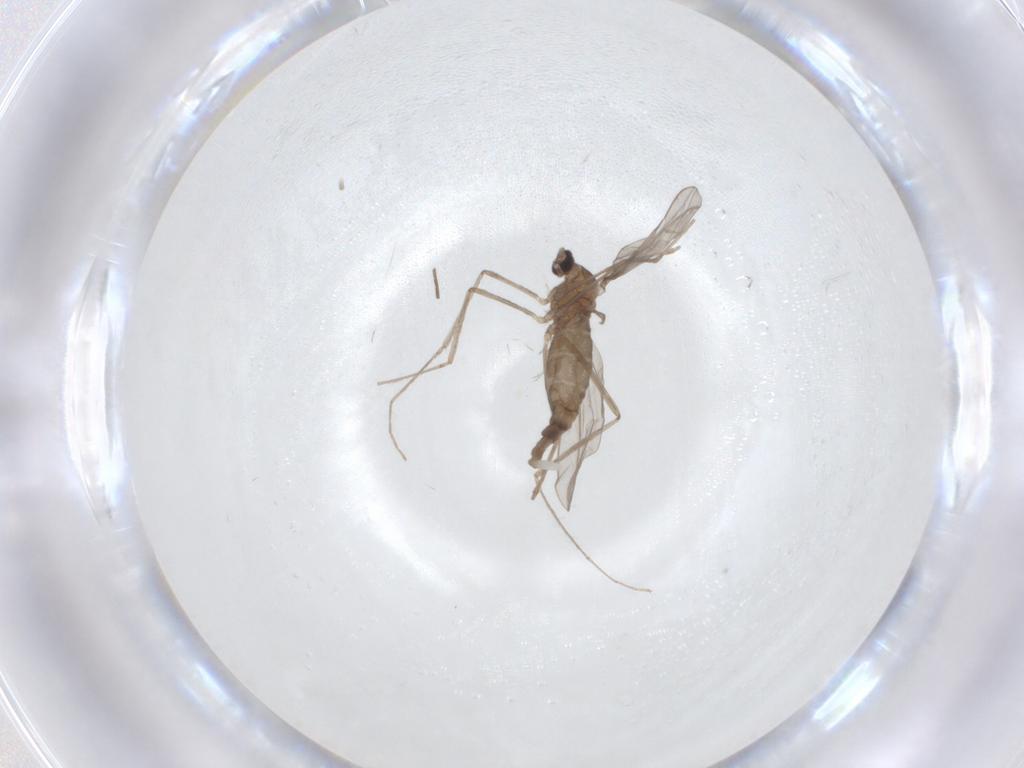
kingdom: Animalia
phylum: Arthropoda
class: Insecta
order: Diptera
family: Cecidomyiidae
